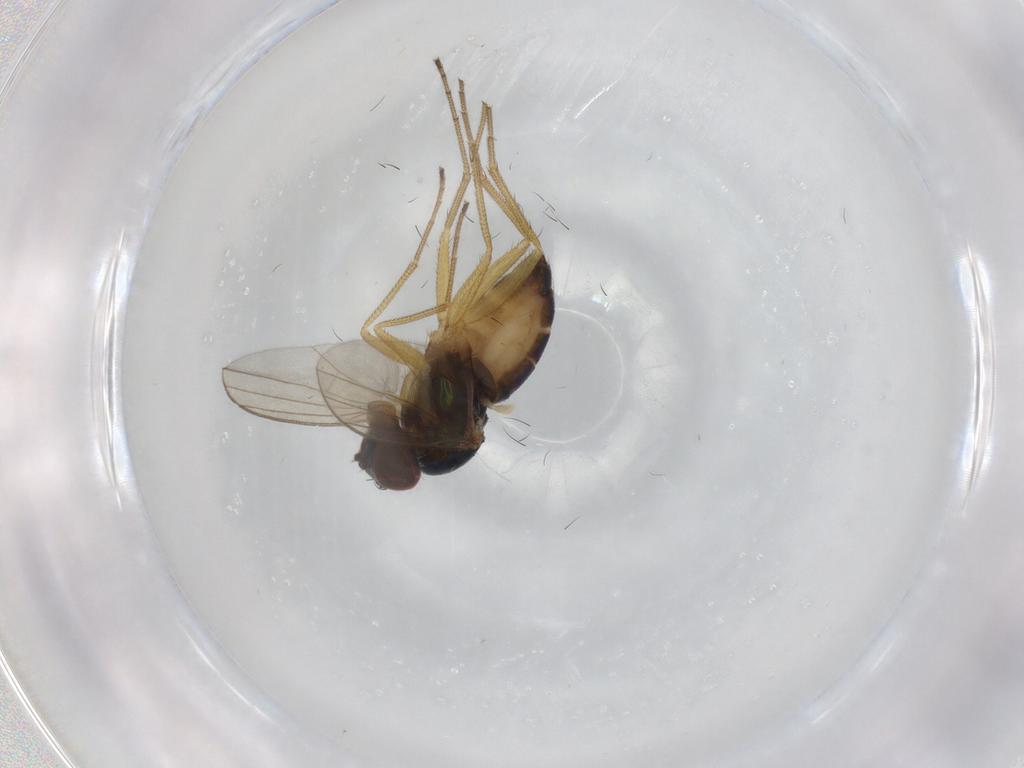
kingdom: Animalia
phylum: Arthropoda
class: Insecta
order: Diptera
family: Dolichopodidae
